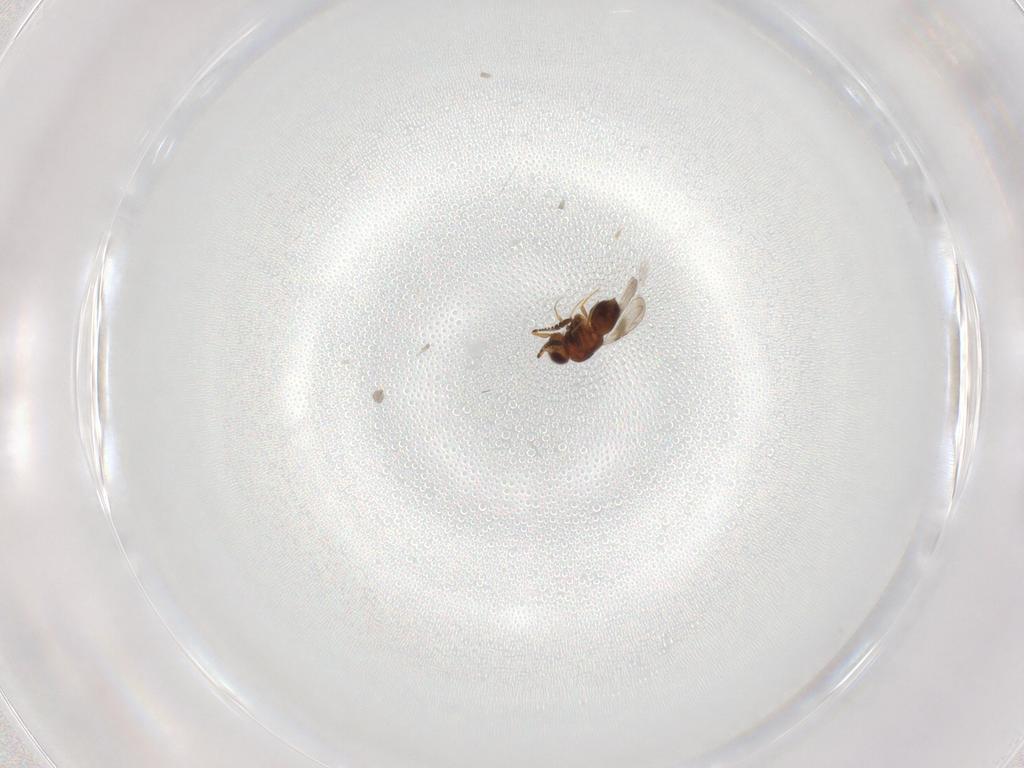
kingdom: Animalia
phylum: Arthropoda
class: Insecta
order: Hymenoptera
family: Ceraphronidae
